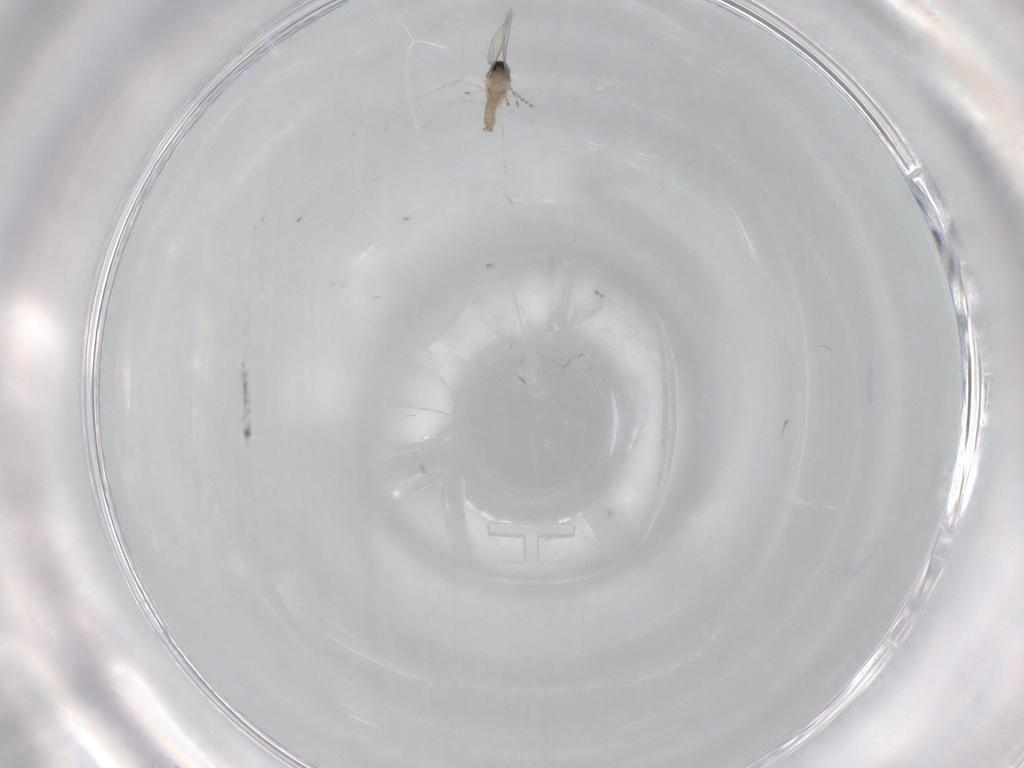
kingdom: Animalia
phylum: Arthropoda
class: Insecta
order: Diptera
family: Cecidomyiidae
